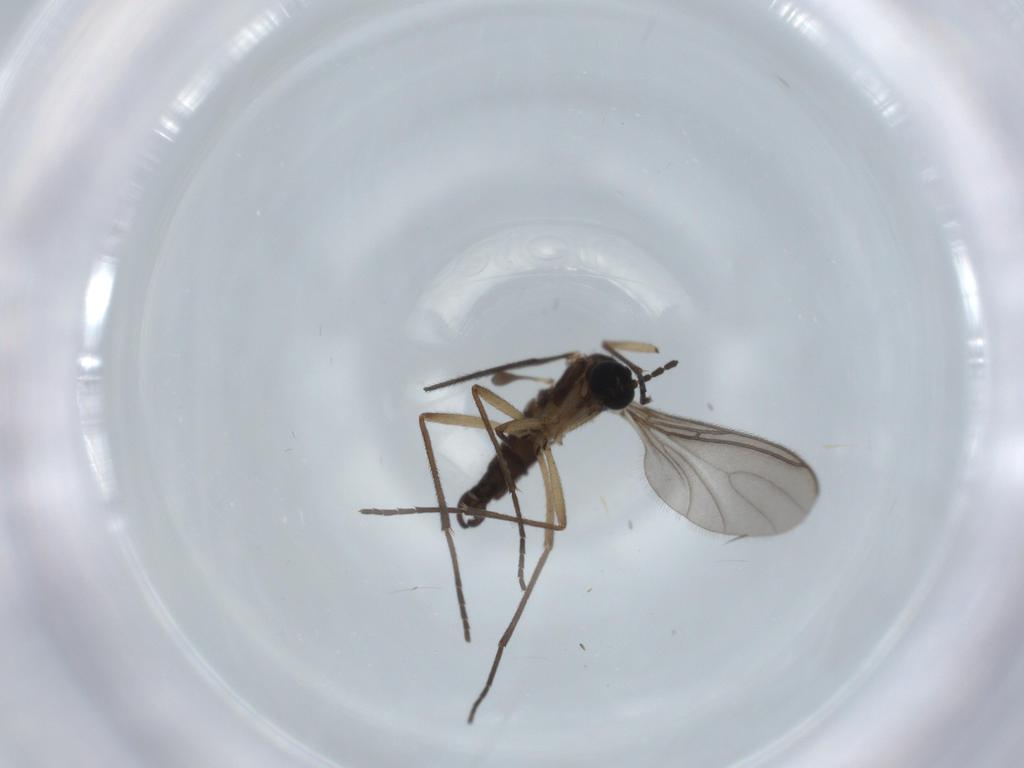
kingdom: Animalia
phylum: Arthropoda
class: Insecta
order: Diptera
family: Sciaridae
